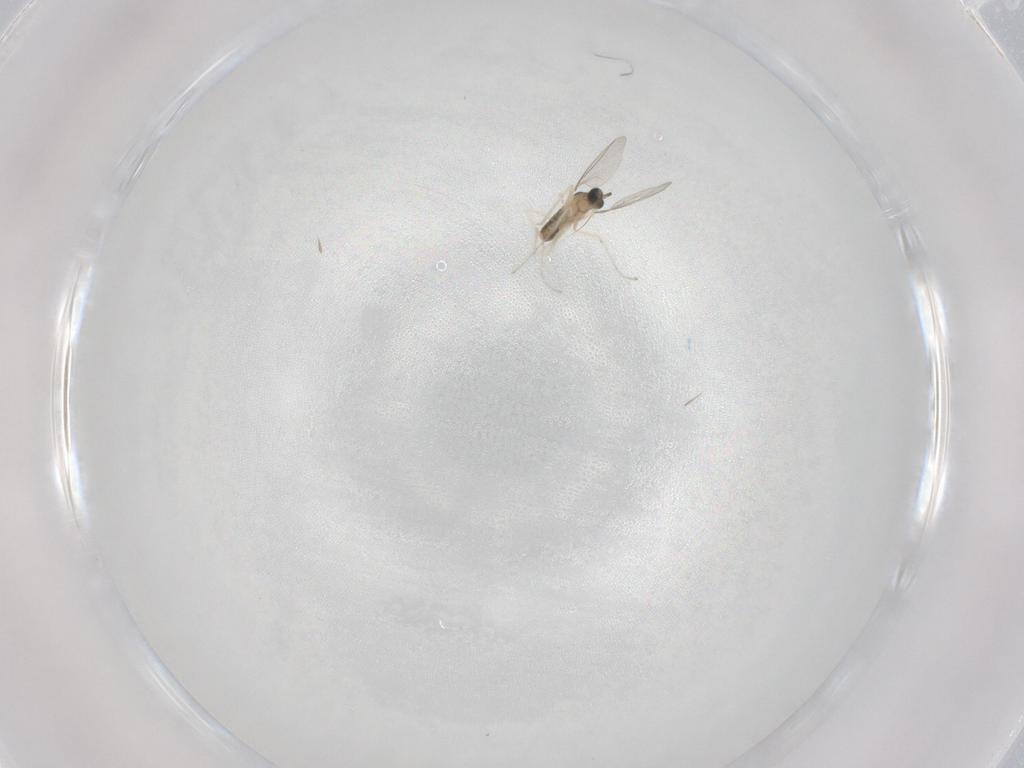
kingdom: Animalia
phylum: Arthropoda
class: Insecta
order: Diptera
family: Cecidomyiidae
